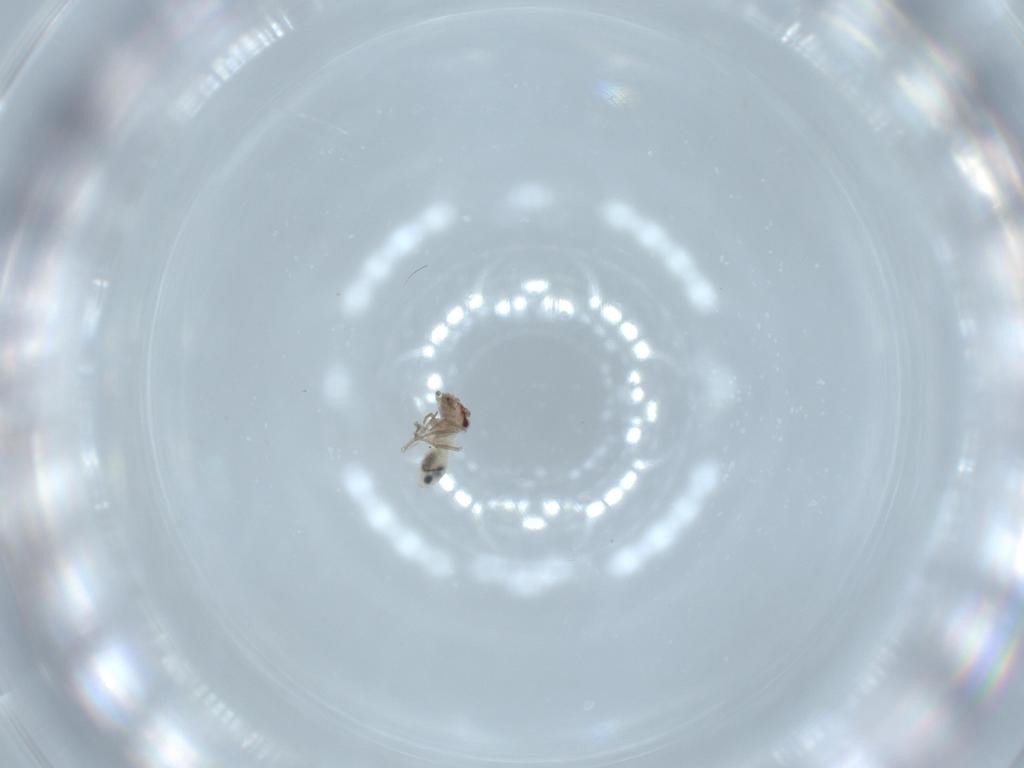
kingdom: Animalia
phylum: Arthropoda
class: Insecta
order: Psocodea
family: Lepidopsocidae
